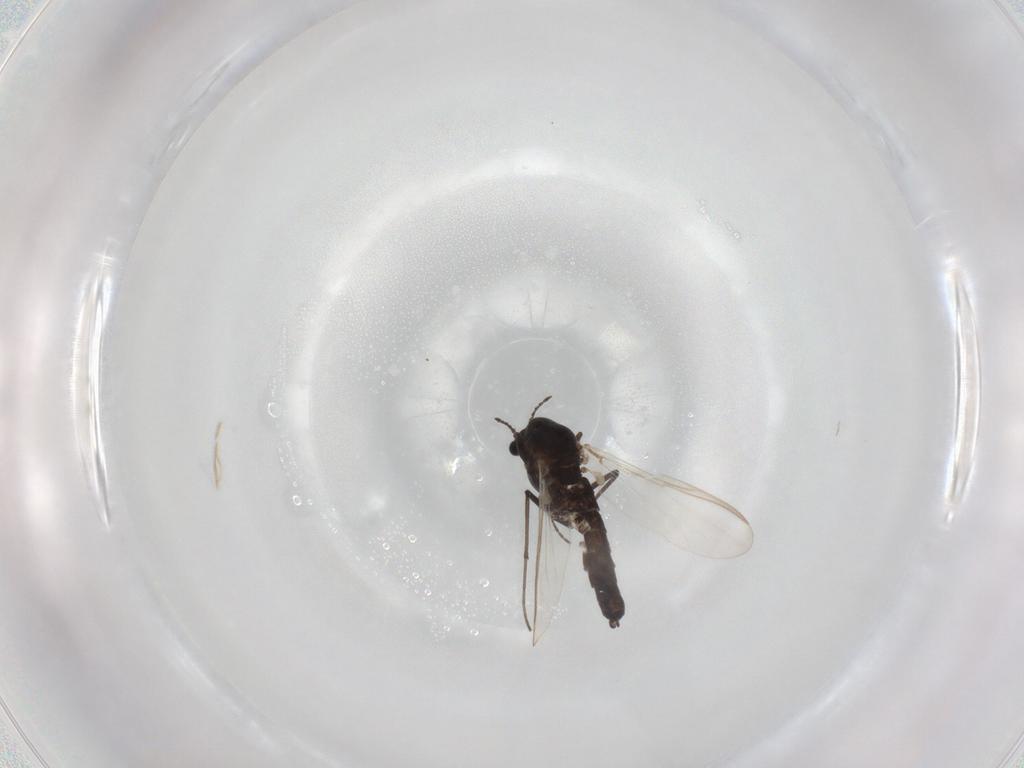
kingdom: Animalia
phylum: Arthropoda
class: Insecta
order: Diptera
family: Chironomidae
